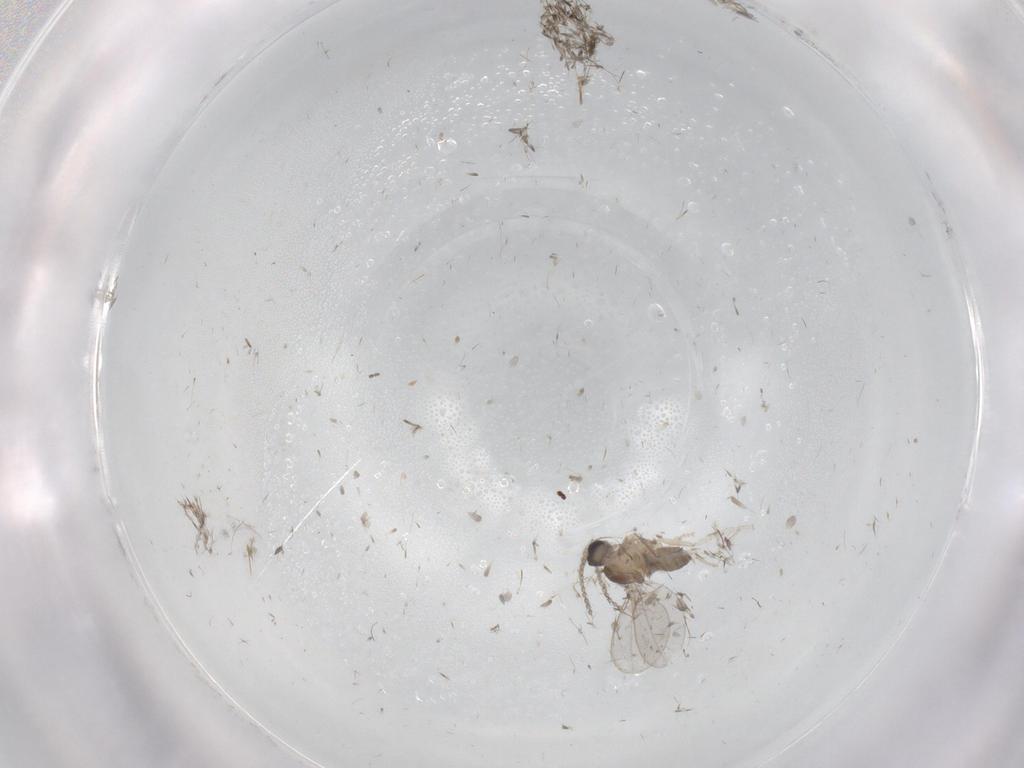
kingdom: Animalia
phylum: Arthropoda
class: Insecta
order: Diptera
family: Cecidomyiidae
